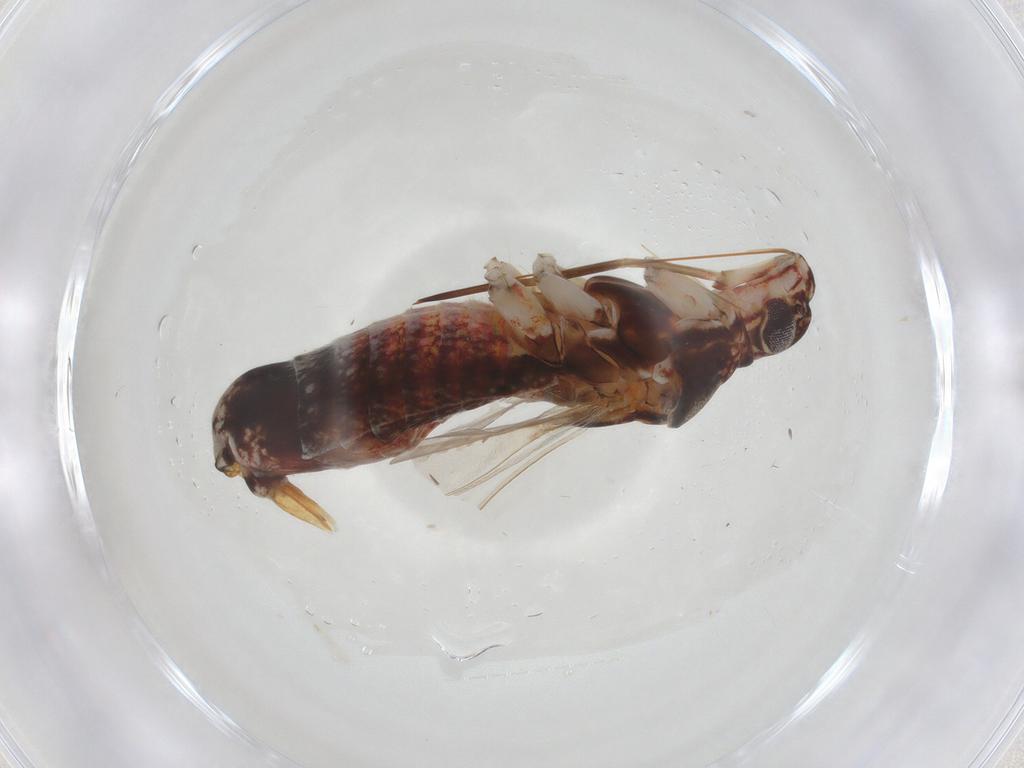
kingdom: Animalia
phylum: Arthropoda
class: Insecta
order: Hemiptera
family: Miridae
